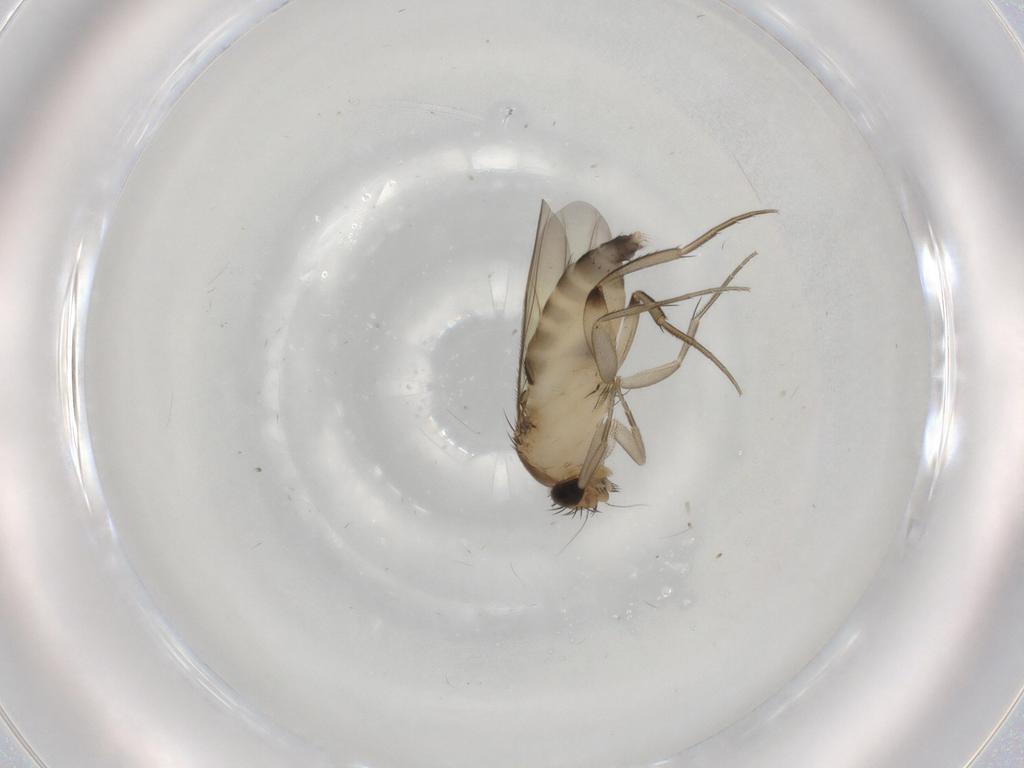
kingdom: Animalia
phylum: Arthropoda
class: Insecta
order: Diptera
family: Phoridae
